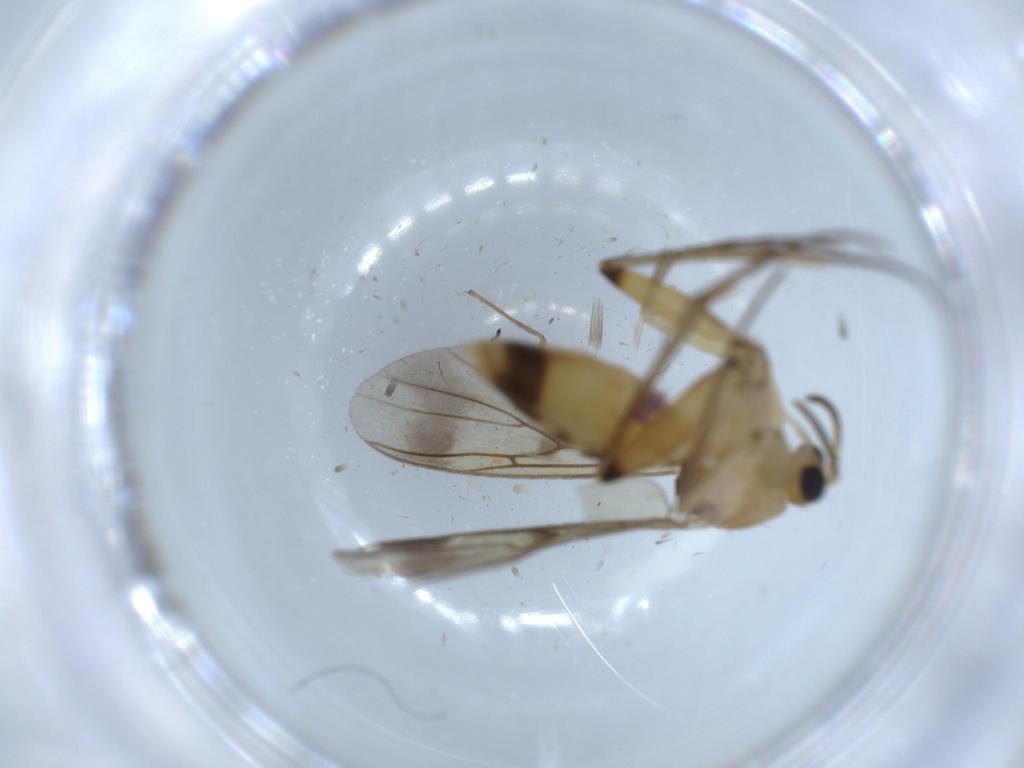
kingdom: Animalia
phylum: Arthropoda
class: Insecta
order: Diptera
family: Mycetophilidae
